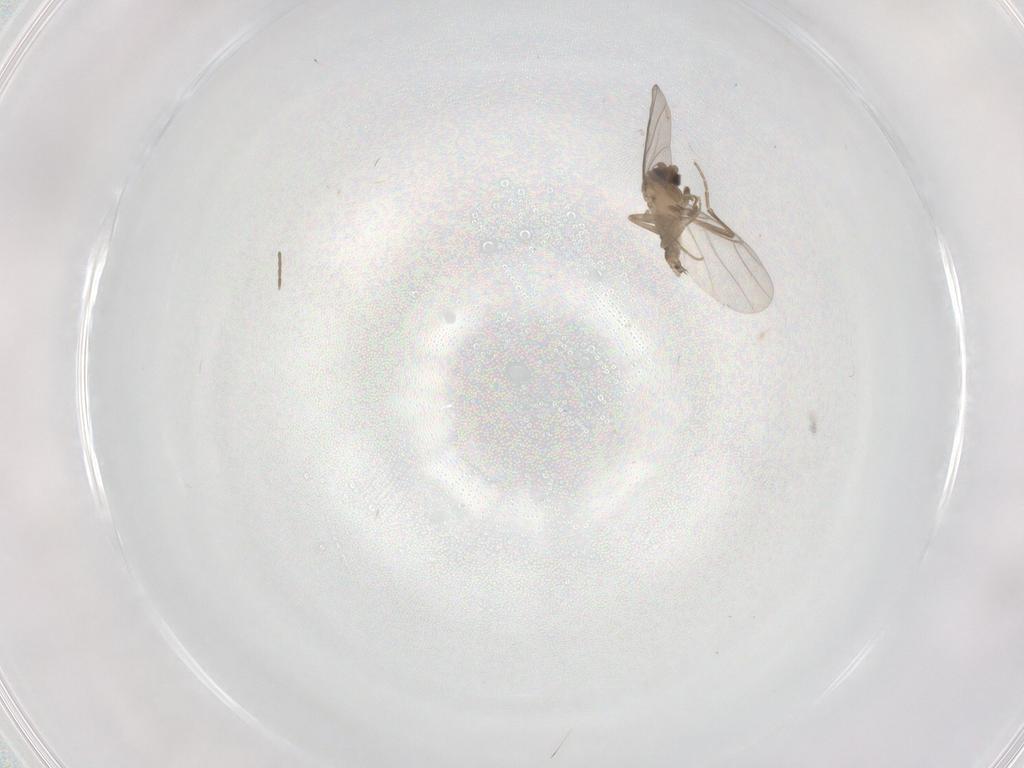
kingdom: Animalia
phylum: Arthropoda
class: Insecta
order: Diptera
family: Cecidomyiidae
